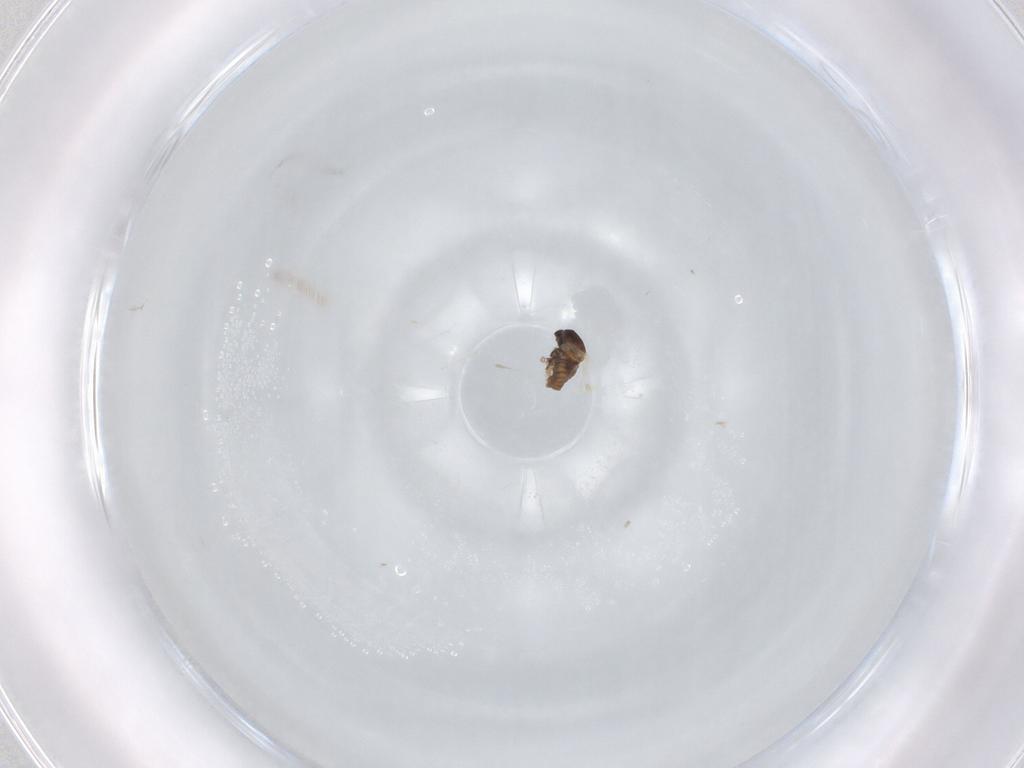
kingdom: Animalia
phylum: Arthropoda
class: Insecta
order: Diptera
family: Cecidomyiidae
